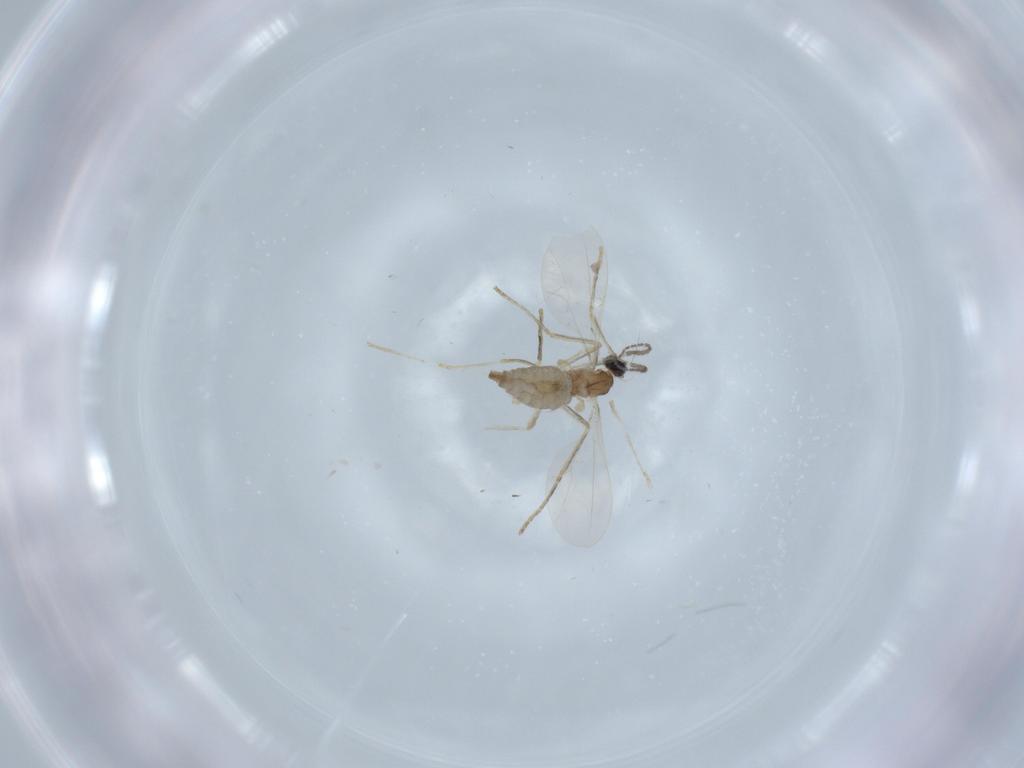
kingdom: Animalia
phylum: Arthropoda
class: Insecta
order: Diptera
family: Cecidomyiidae
